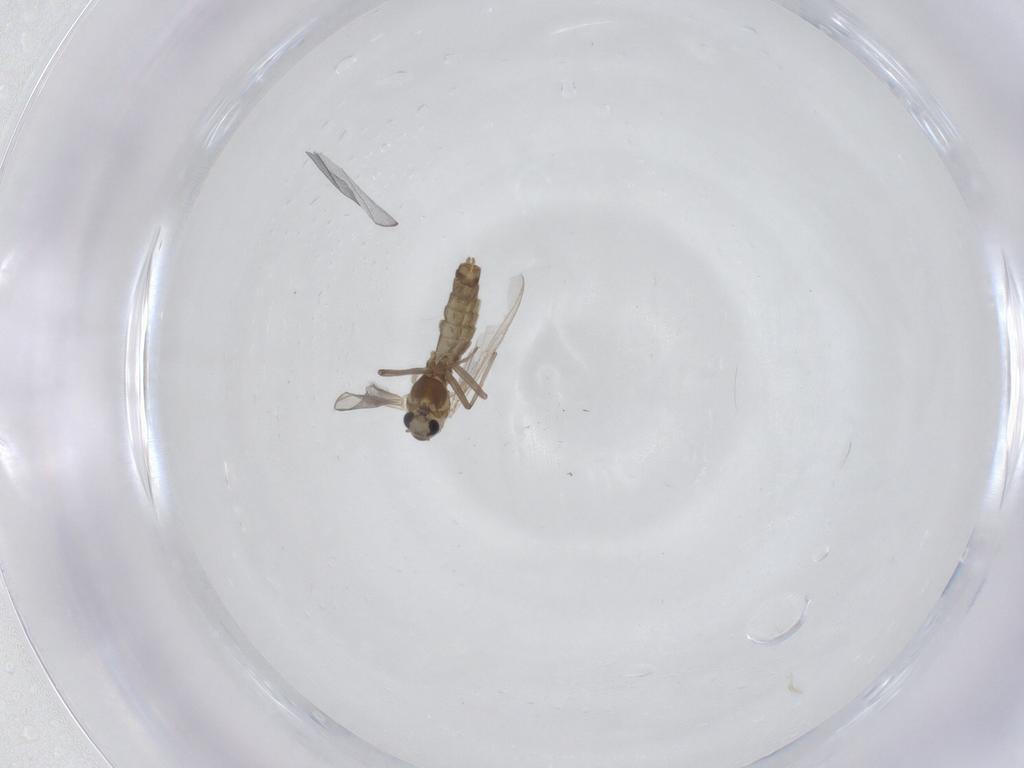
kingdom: Animalia
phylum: Arthropoda
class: Insecta
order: Diptera
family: Chironomidae
